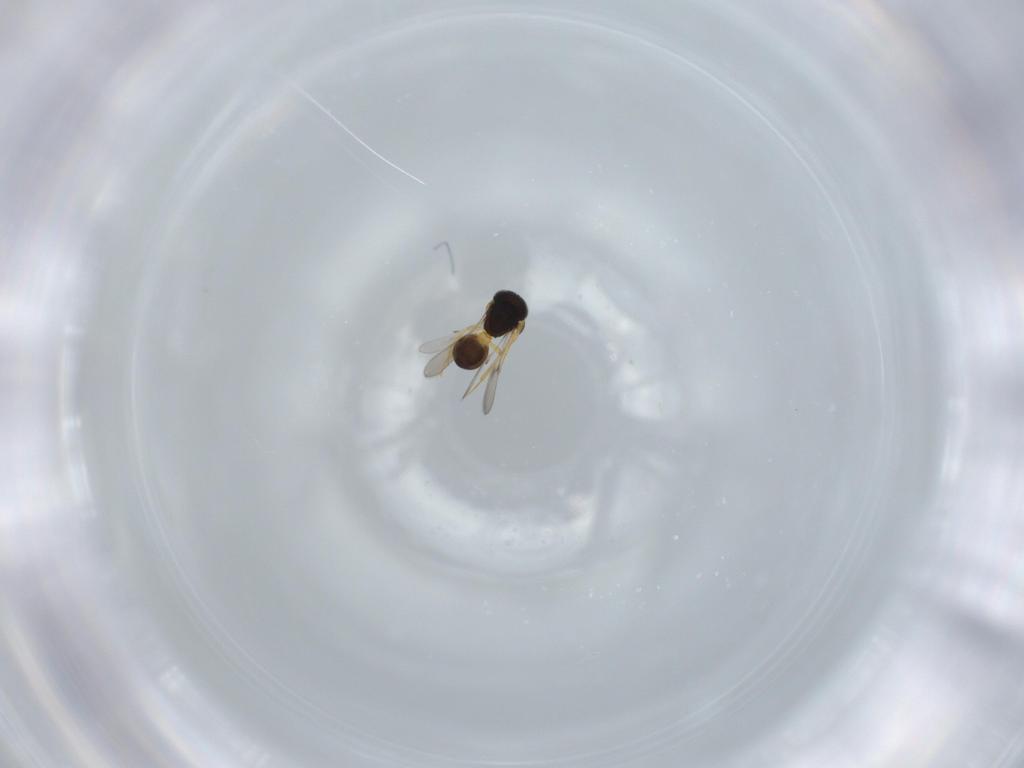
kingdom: Animalia
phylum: Arthropoda
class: Insecta
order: Hymenoptera
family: Scelionidae
